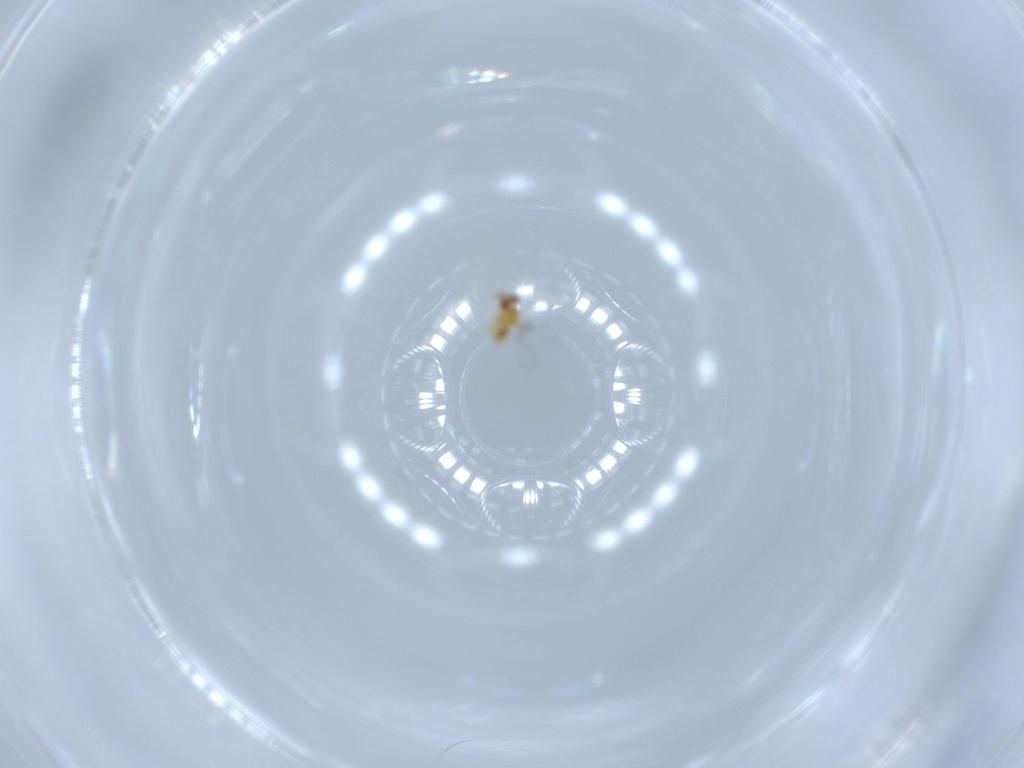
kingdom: Animalia
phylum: Arthropoda
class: Insecta
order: Hymenoptera
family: Trichogrammatidae
